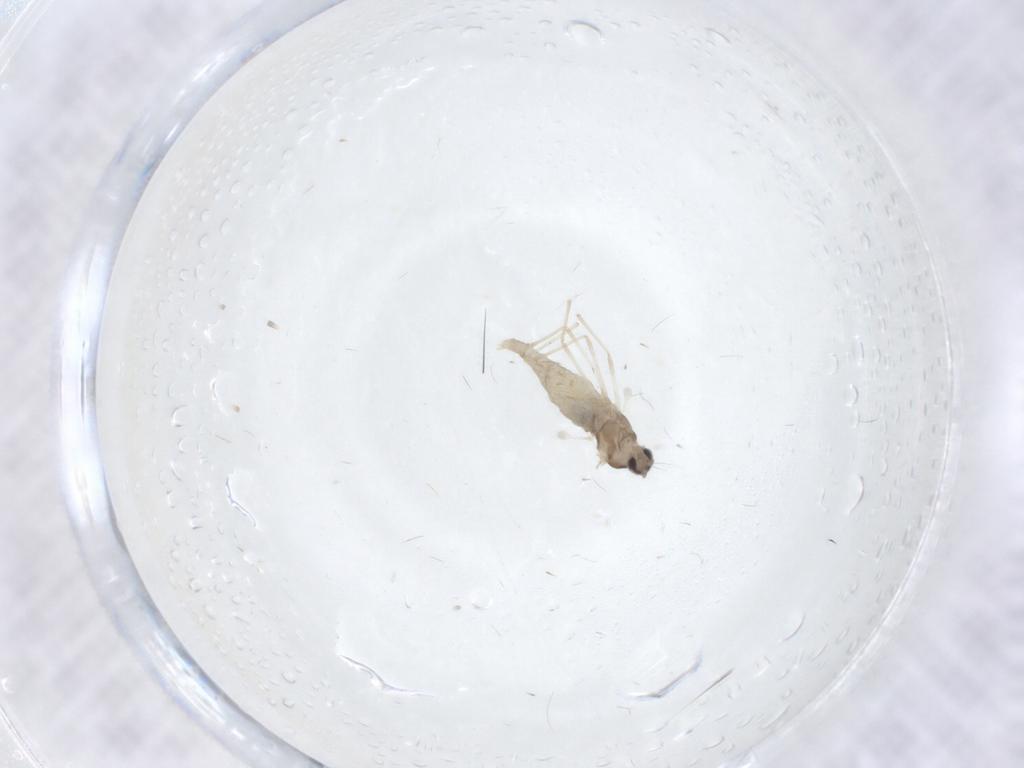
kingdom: Animalia
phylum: Arthropoda
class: Insecta
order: Diptera
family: Cecidomyiidae
